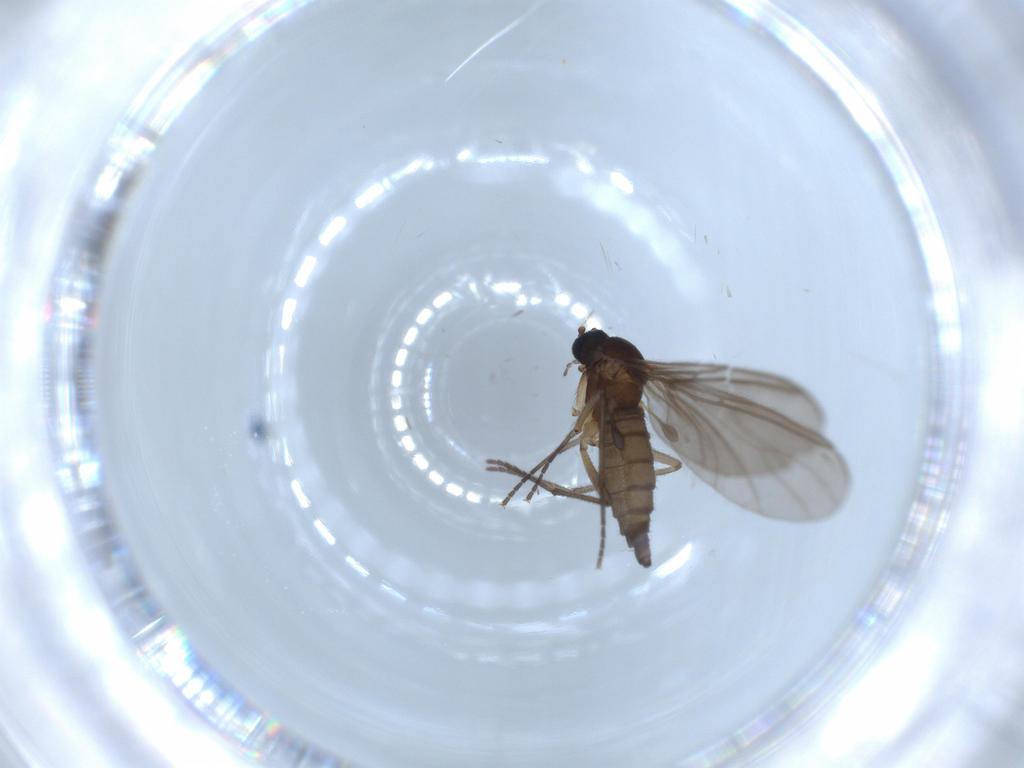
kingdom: Animalia
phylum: Arthropoda
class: Insecta
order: Diptera
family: Sciaridae
